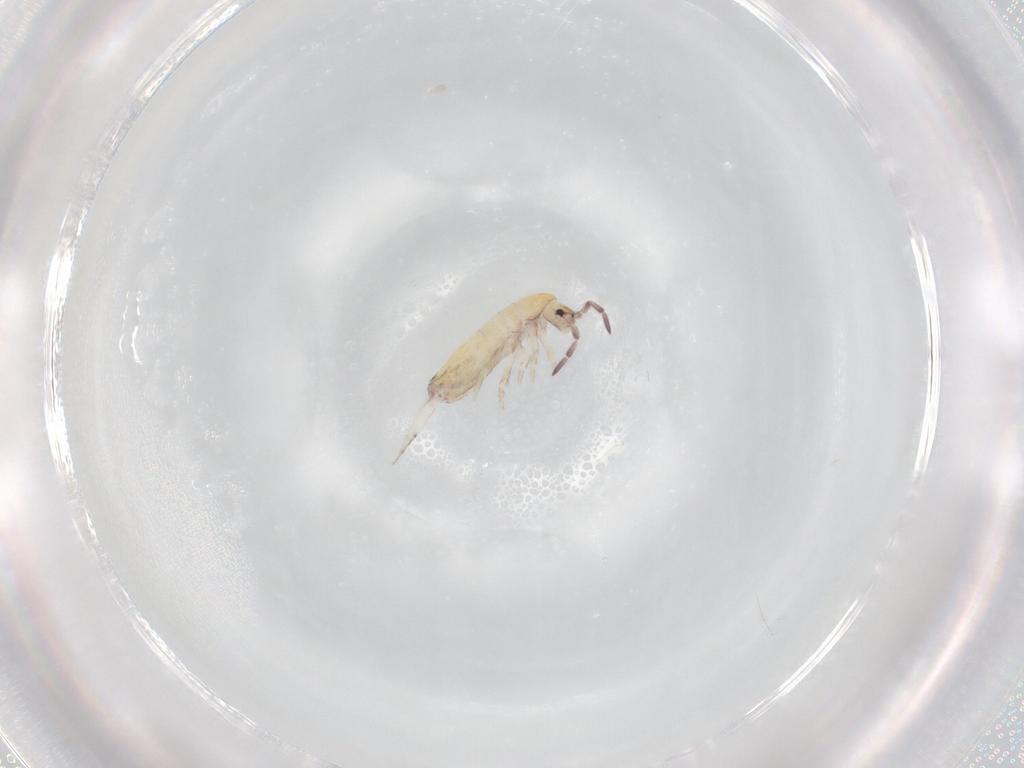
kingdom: Animalia
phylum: Arthropoda
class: Collembola
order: Entomobryomorpha
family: Entomobryidae
